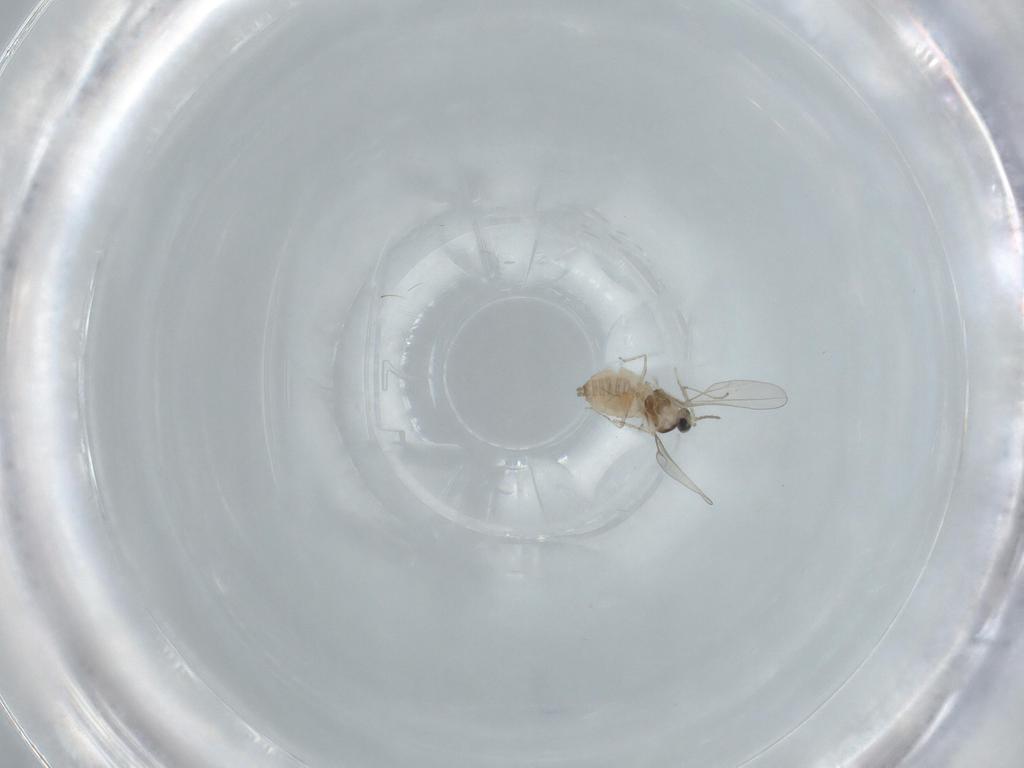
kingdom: Animalia
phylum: Arthropoda
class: Insecta
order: Diptera
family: Cecidomyiidae
